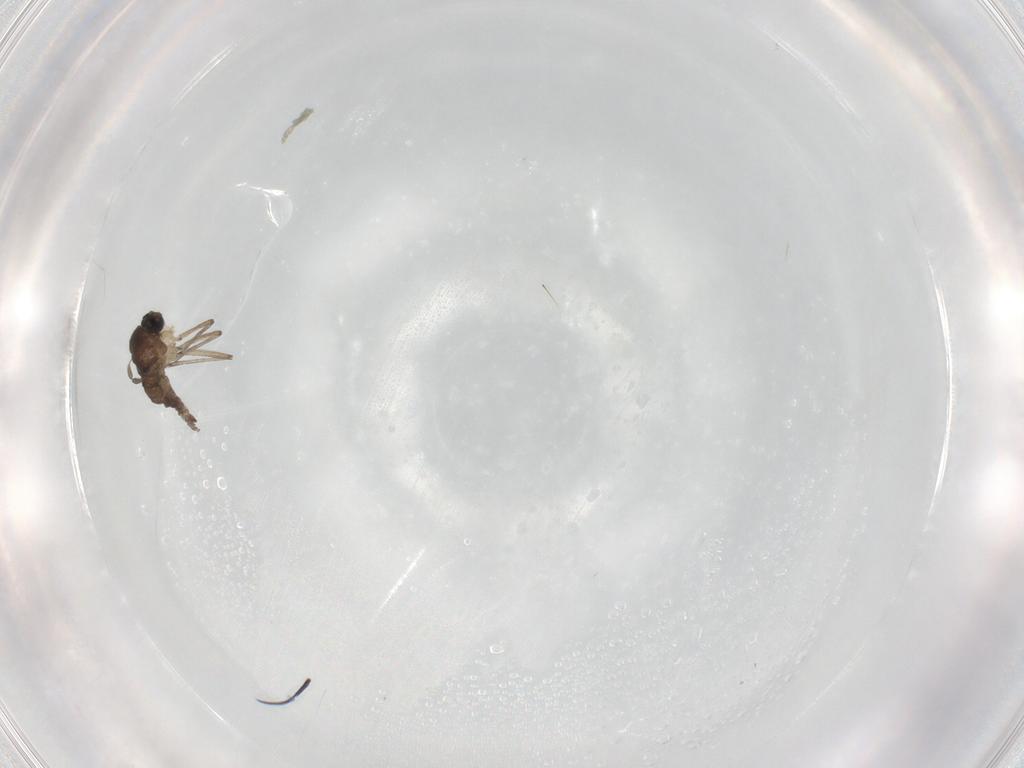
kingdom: Animalia
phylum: Arthropoda
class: Insecta
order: Diptera
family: Sciaridae
